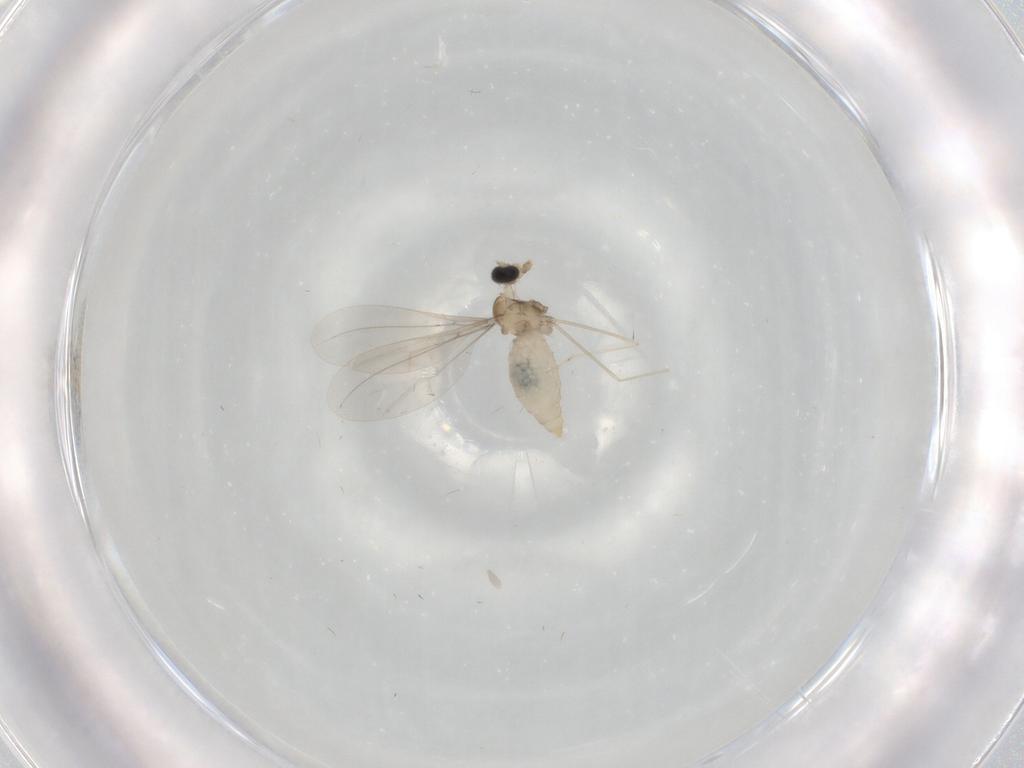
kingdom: Animalia
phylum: Arthropoda
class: Insecta
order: Diptera
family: Cecidomyiidae
